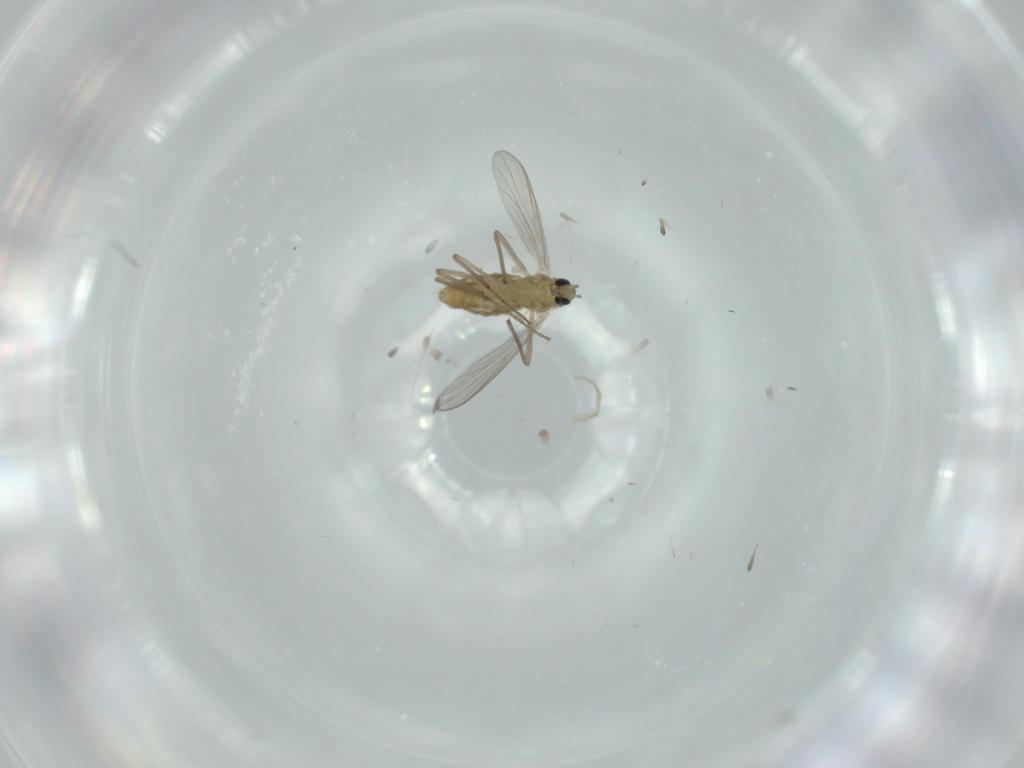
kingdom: Animalia
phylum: Arthropoda
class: Insecta
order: Diptera
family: Chironomidae
